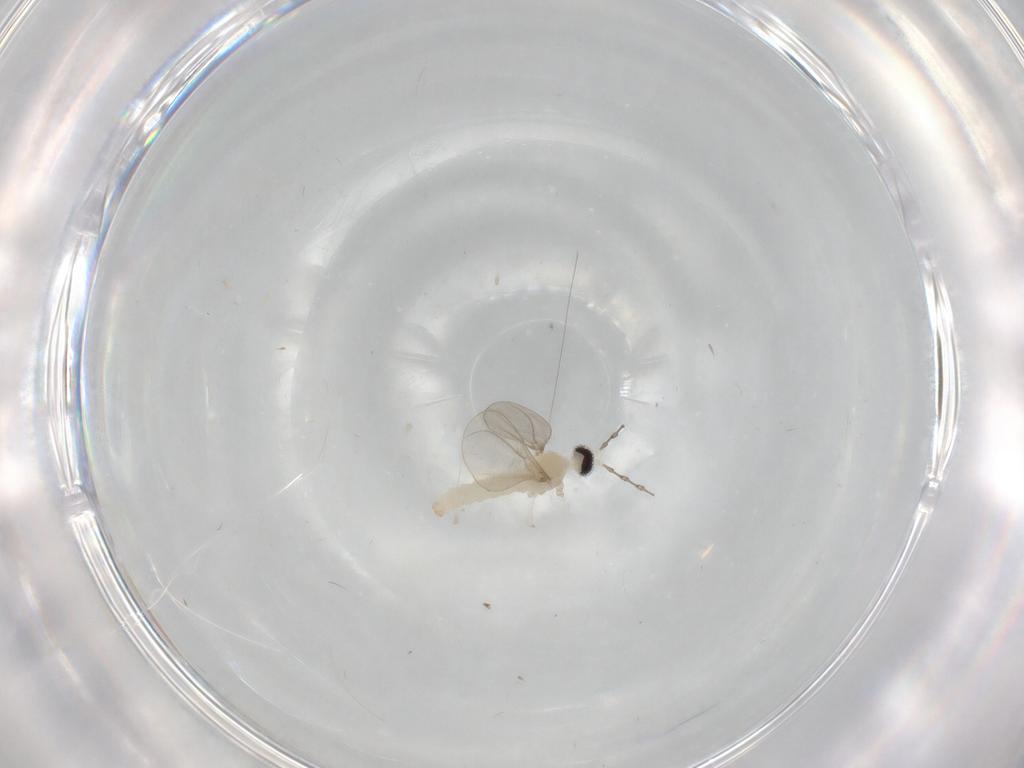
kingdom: Animalia
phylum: Arthropoda
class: Insecta
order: Diptera
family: Cecidomyiidae
